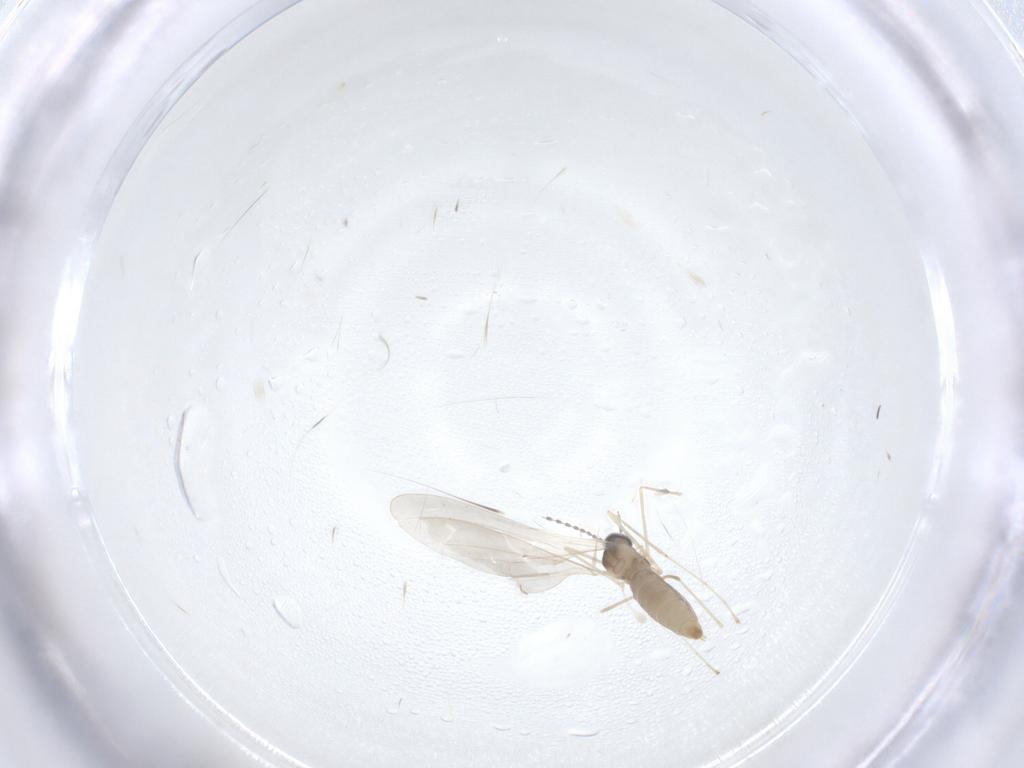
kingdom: Animalia
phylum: Arthropoda
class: Insecta
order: Diptera
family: Cecidomyiidae
